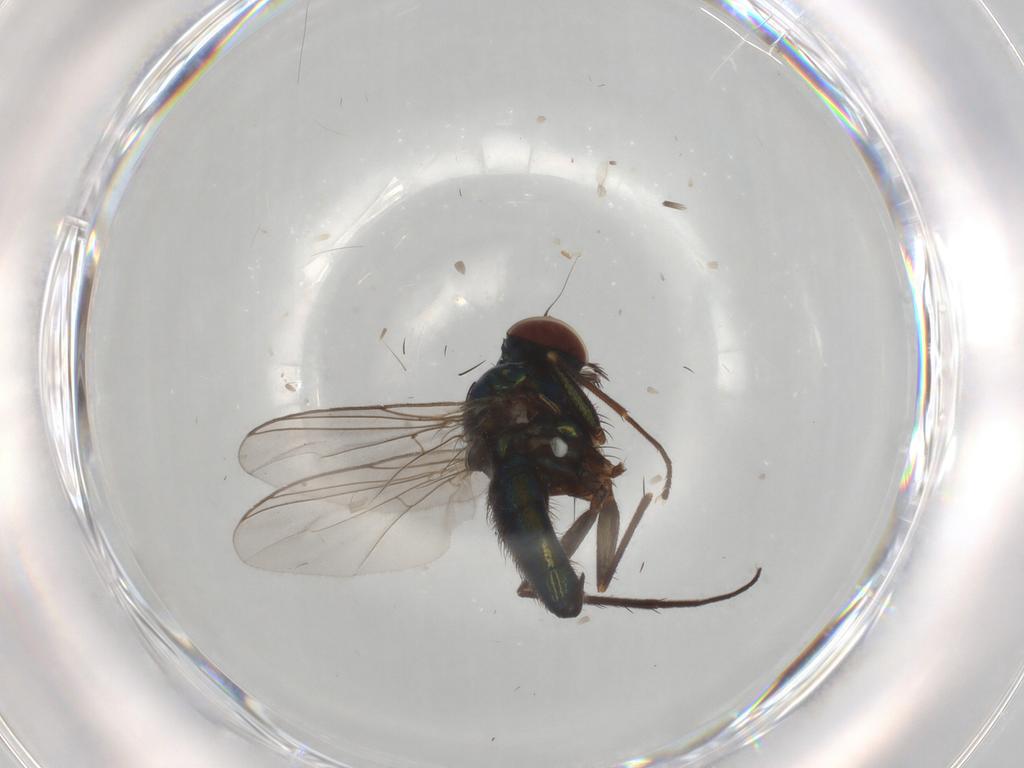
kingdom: Animalia
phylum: Arthropoda
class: Insecta
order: Diptera
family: Dolichopodidae
